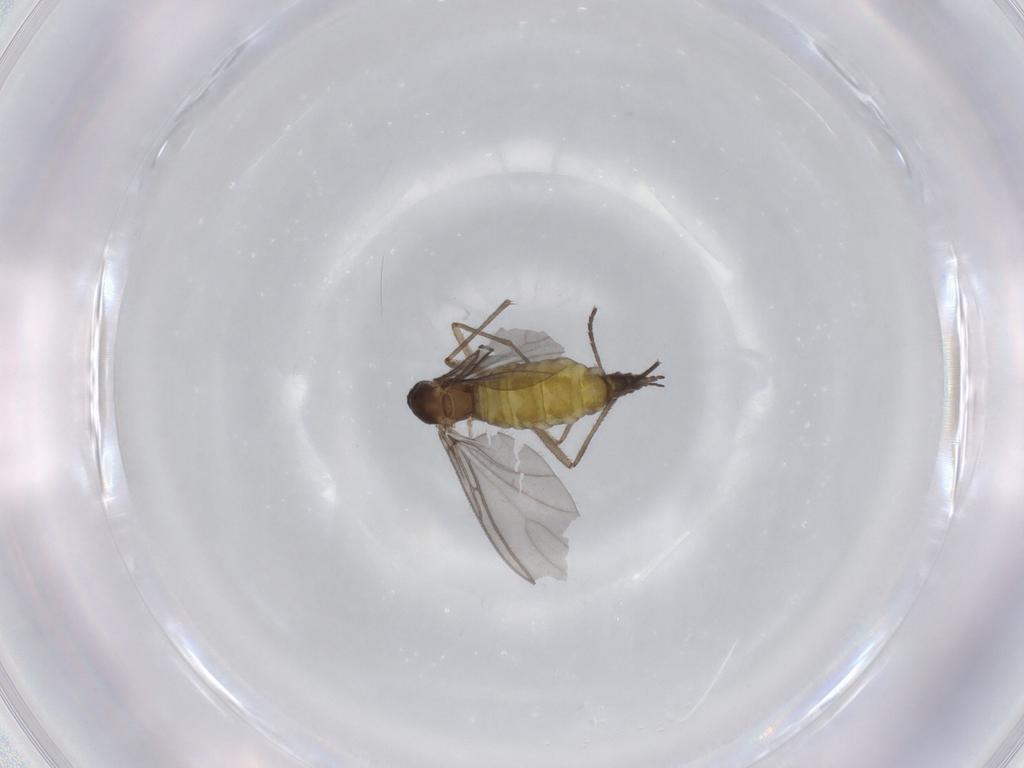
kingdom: Animalia
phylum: Arthropoda
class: Insecta
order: Diptera
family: Sciaridae
